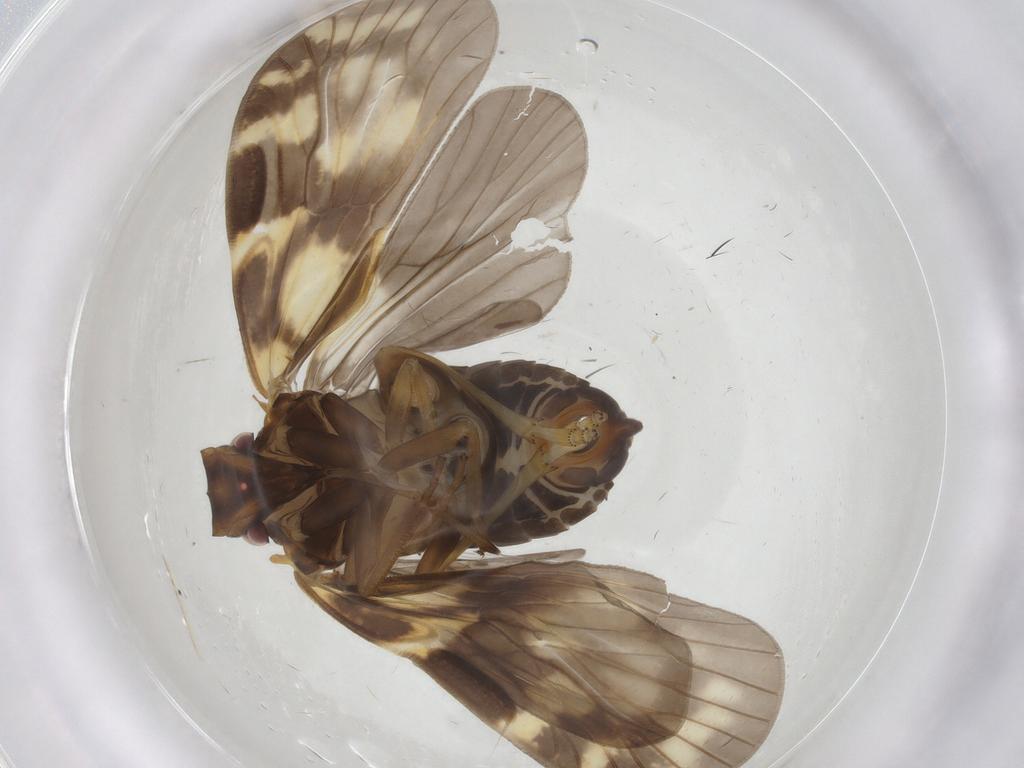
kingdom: Animalia
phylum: Arthropoda
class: Insecta
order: Hemiptera
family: Cixiidae
